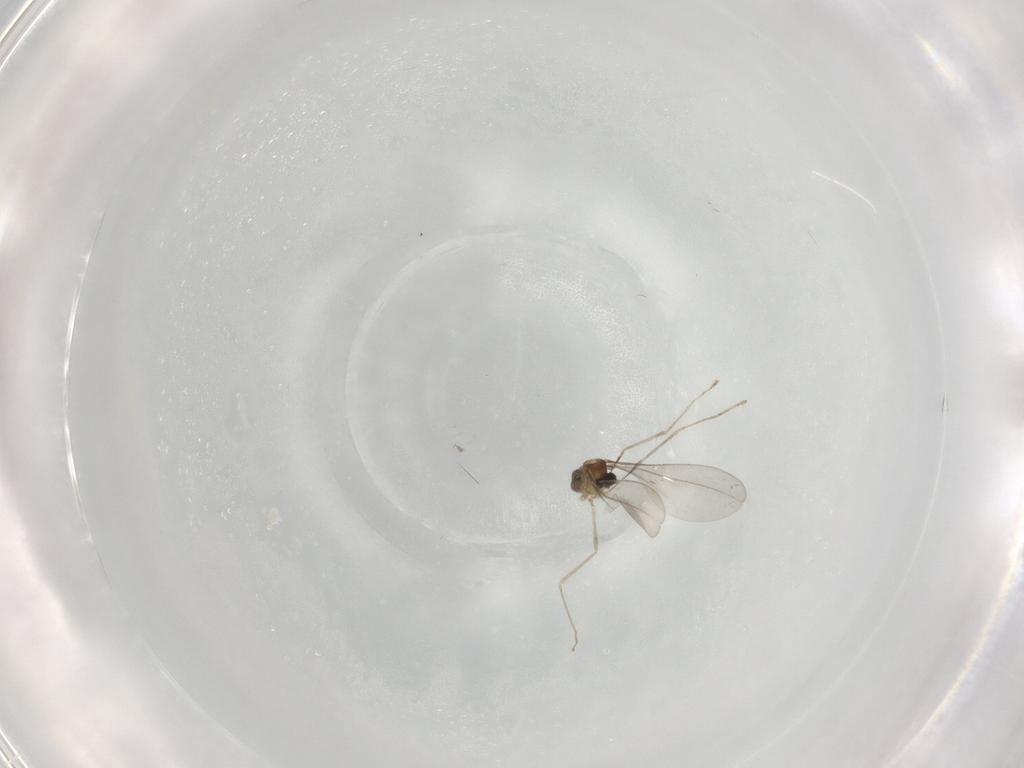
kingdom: Animalia
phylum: Arthropoda
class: Insecta
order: Diptera
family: Cecidomyiidae
